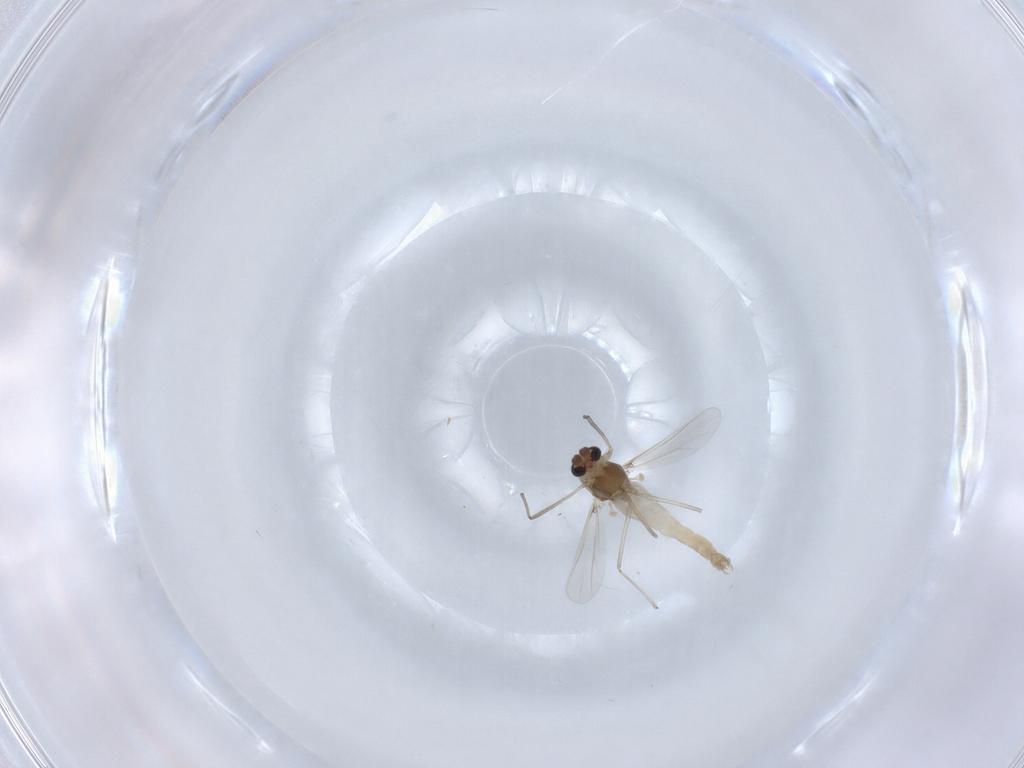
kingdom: Animalia
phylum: Arthropoda
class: Insecta
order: Diptera
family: Chironomidae
